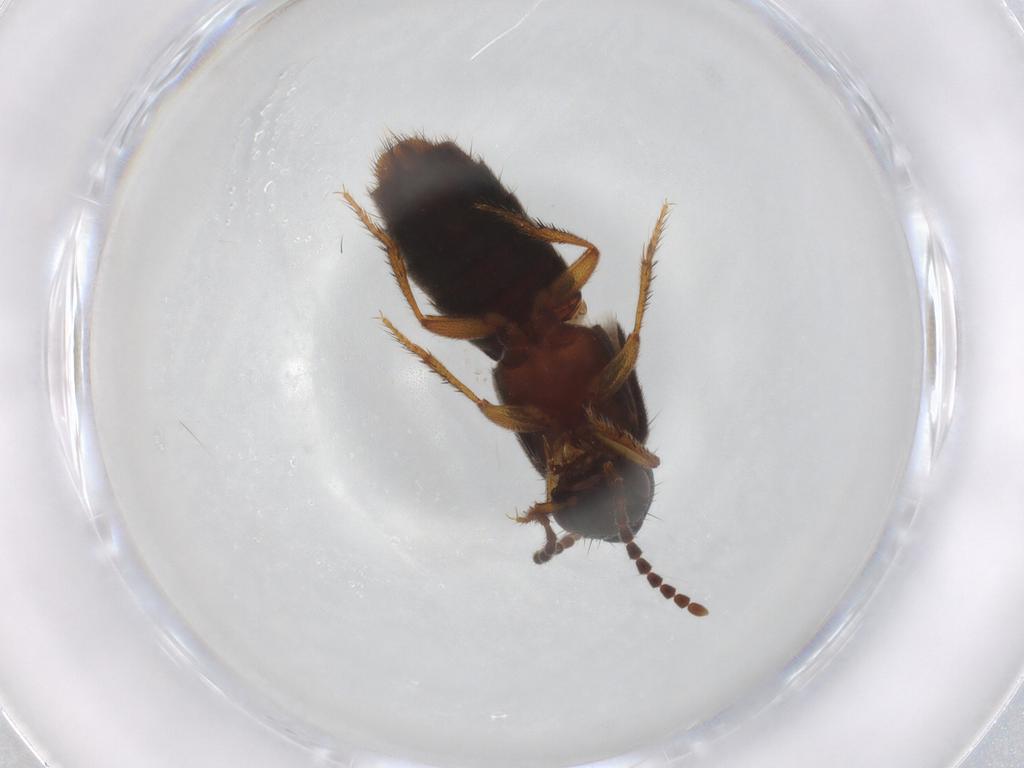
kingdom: Animalia
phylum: Arthropoda
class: Insecta
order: Coleoptera
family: Staphylinidae
